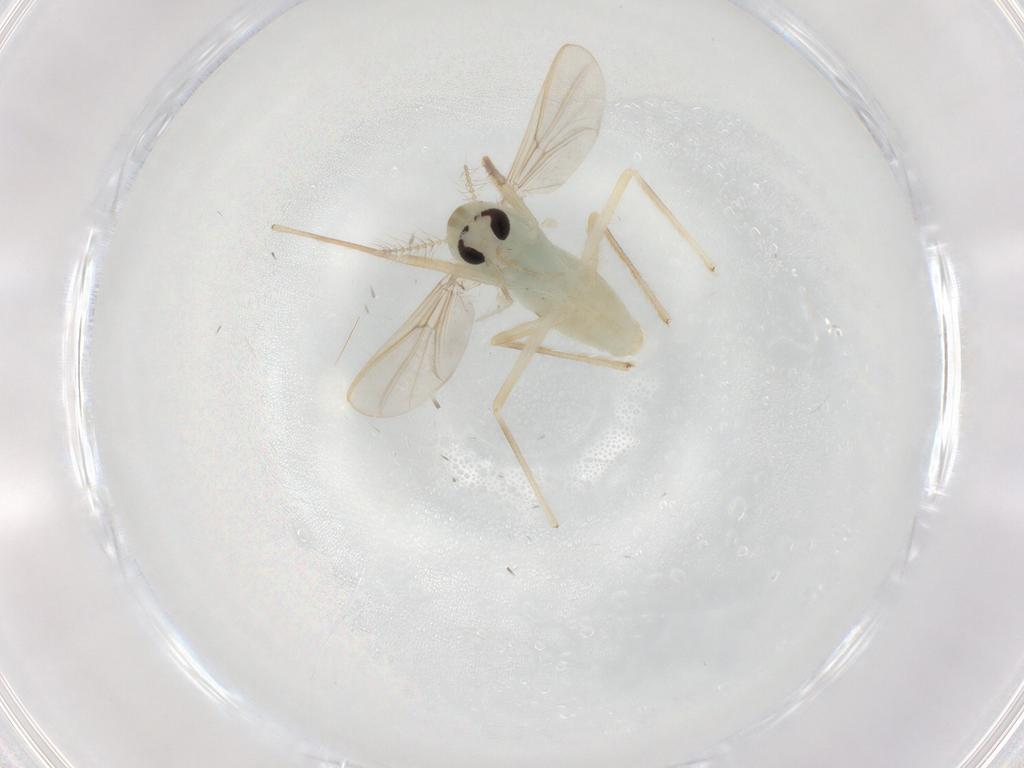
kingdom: Animalia
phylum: Arthropoda
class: Insecta
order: Diptera
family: Chironomidae
